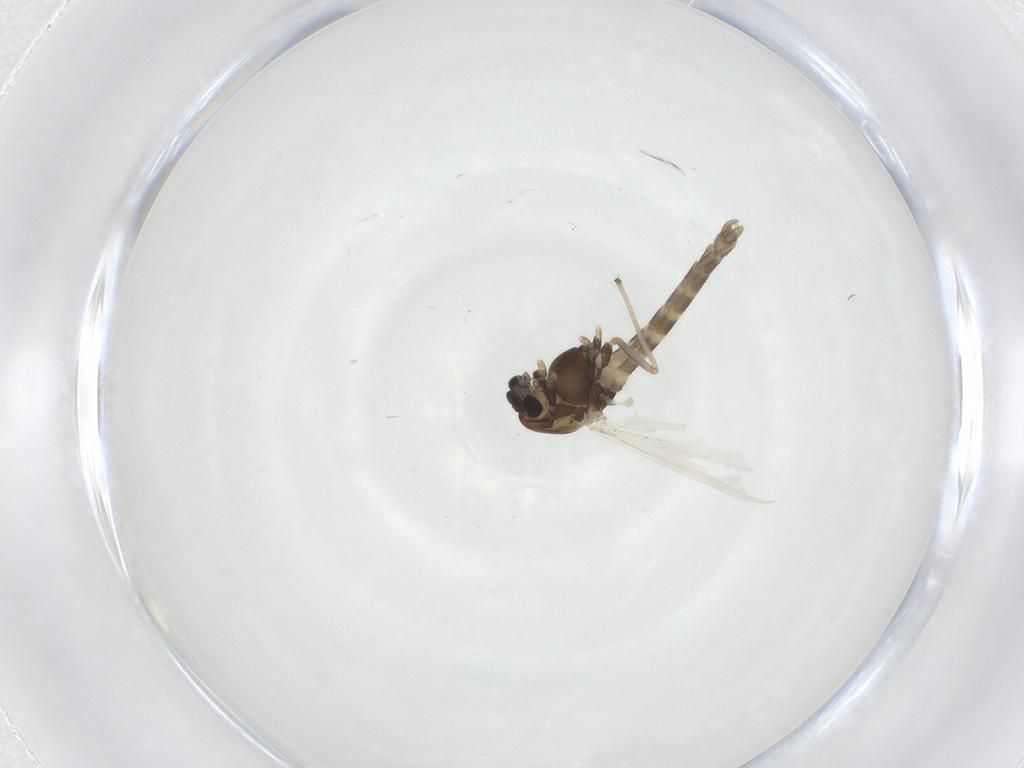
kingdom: Animalia
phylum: Arthropoda
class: Insecta
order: Diptera
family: Chironomidae
